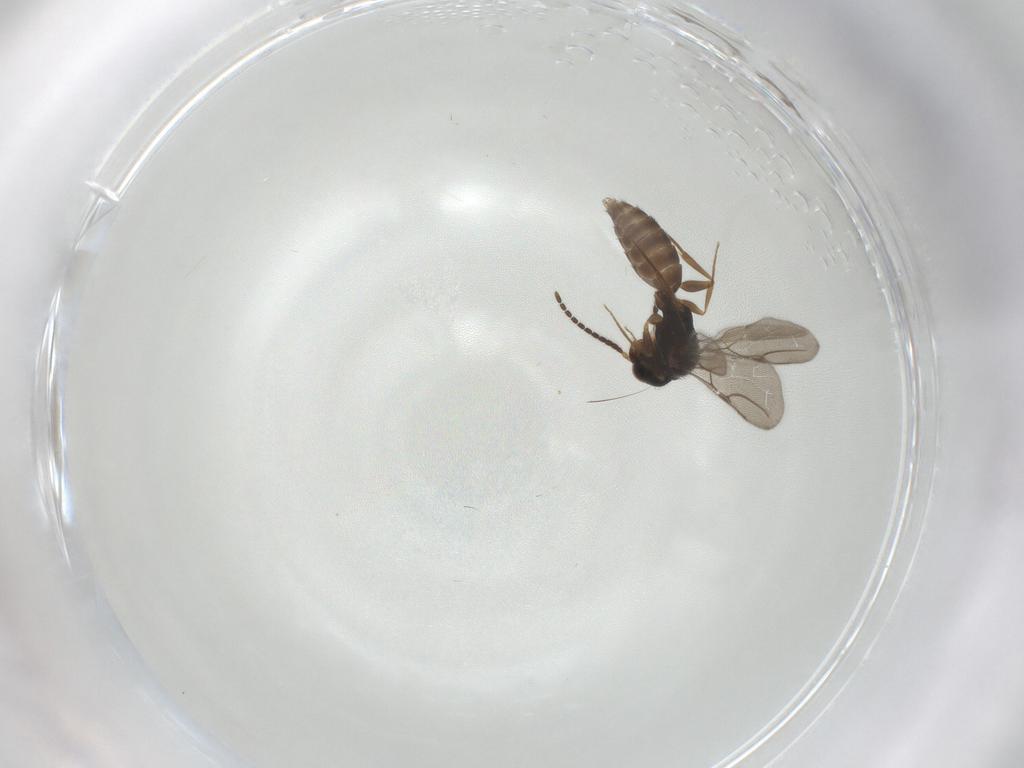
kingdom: Animalia
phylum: Arthropoda
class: Insecta
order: Hymenoptera
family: Bethylidae
